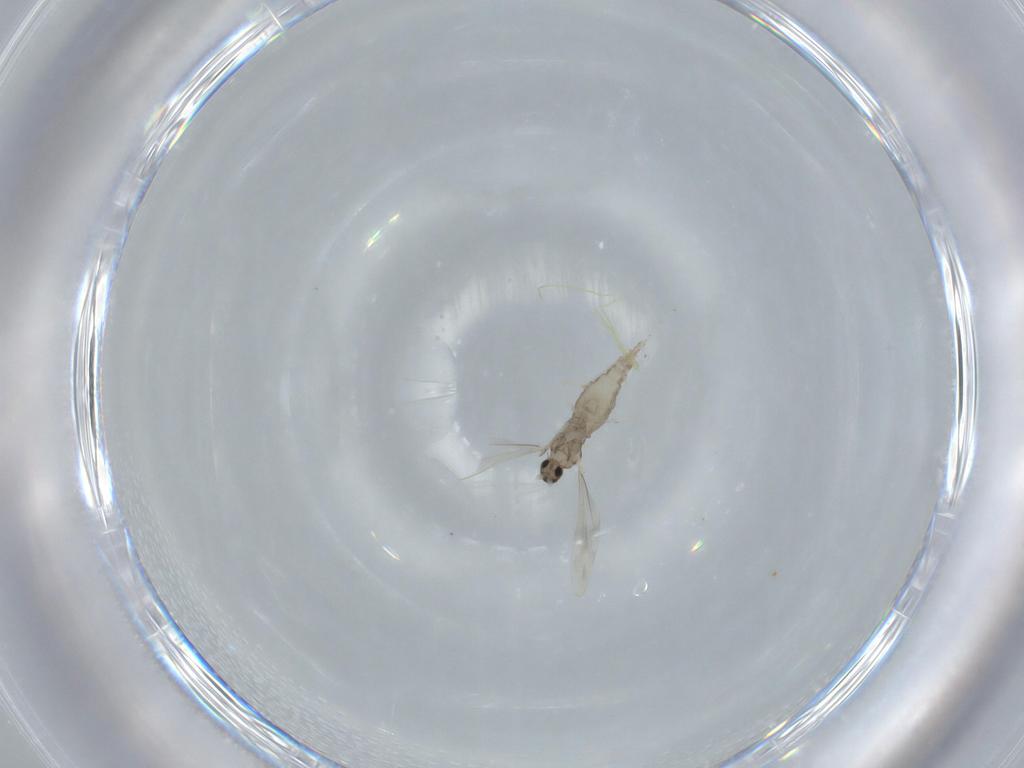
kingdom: Animalia
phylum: Arthropoda
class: Insecta
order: Diptera
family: Cecidomyiidae
